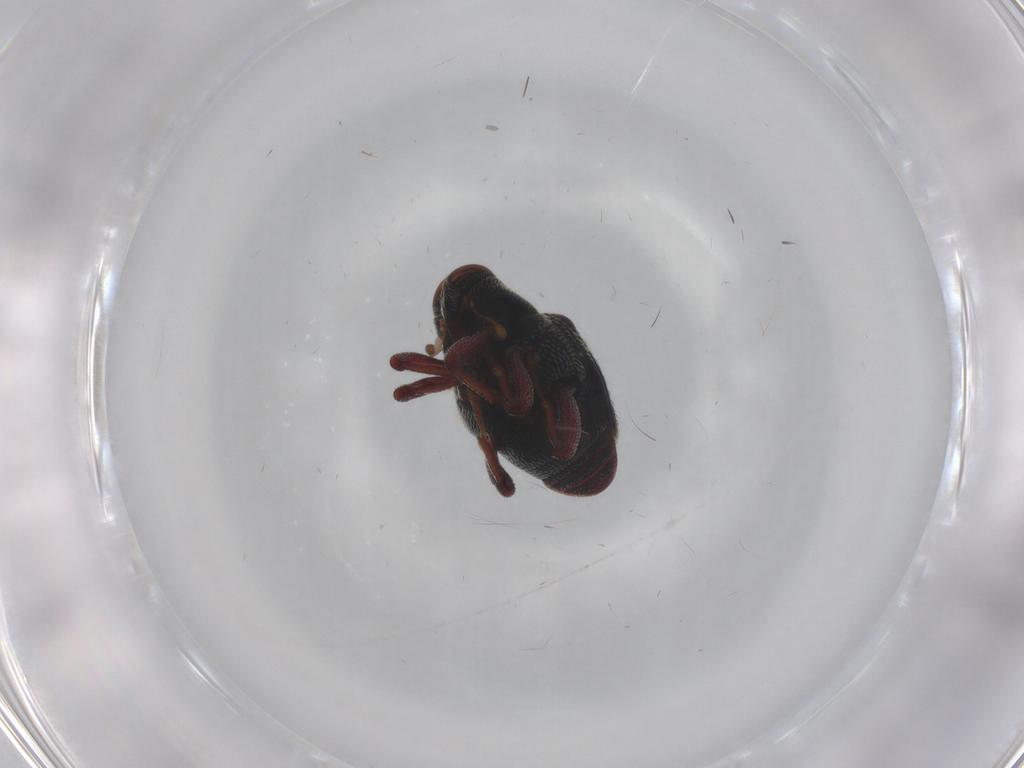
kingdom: Animalia
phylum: Arthropoda
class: Insecta
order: Coleoptera
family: Curculionidae
